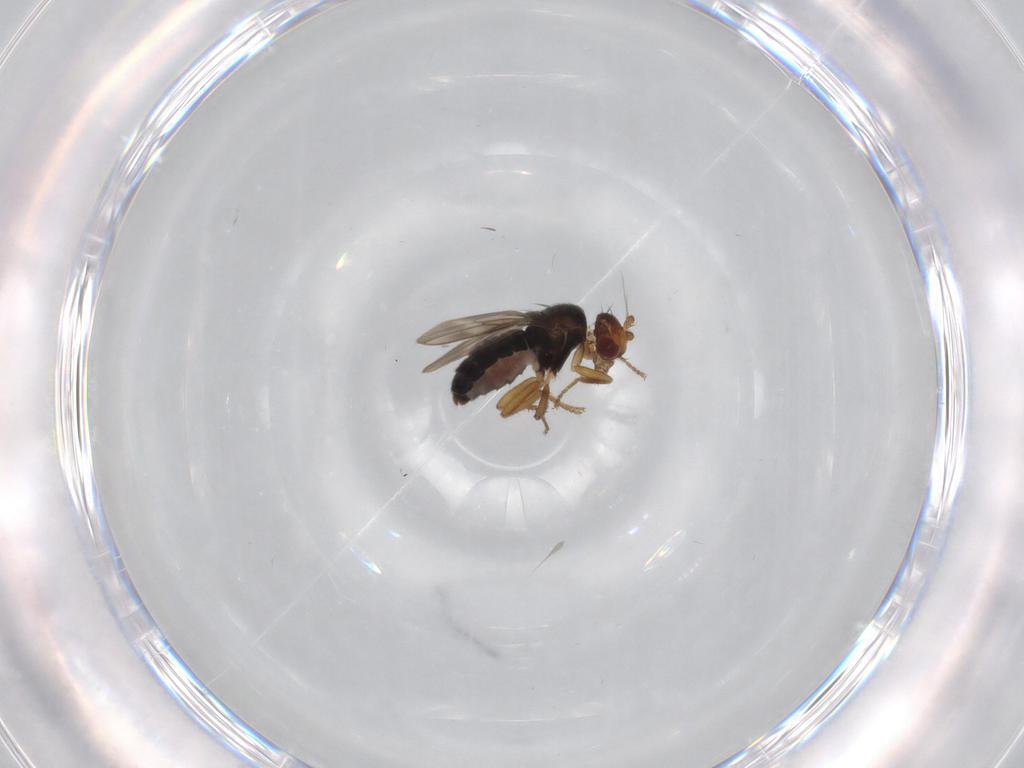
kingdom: Animalia
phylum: Arthropoda
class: Insecta
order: Diptera
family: Sphaeroceridae
